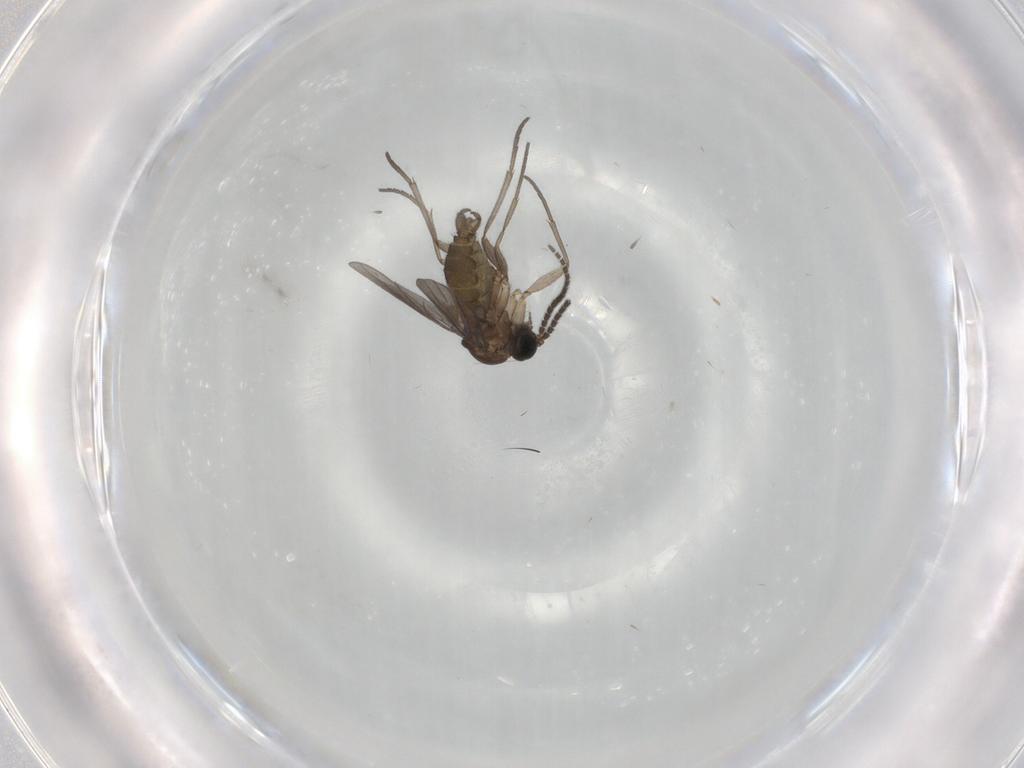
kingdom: Animalia
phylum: Arthropoda
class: Insecta
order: Diptera
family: Sciaridae
